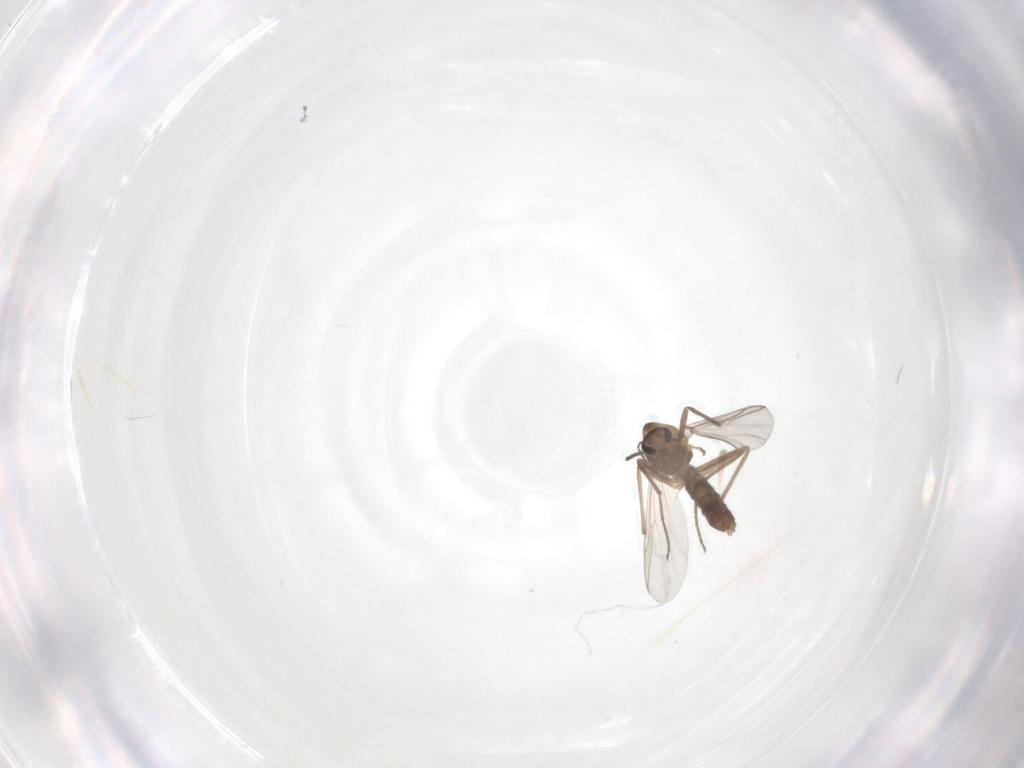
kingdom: Animalia
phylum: Arthropoda
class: Insecta
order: Diptera
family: Chironomidae
